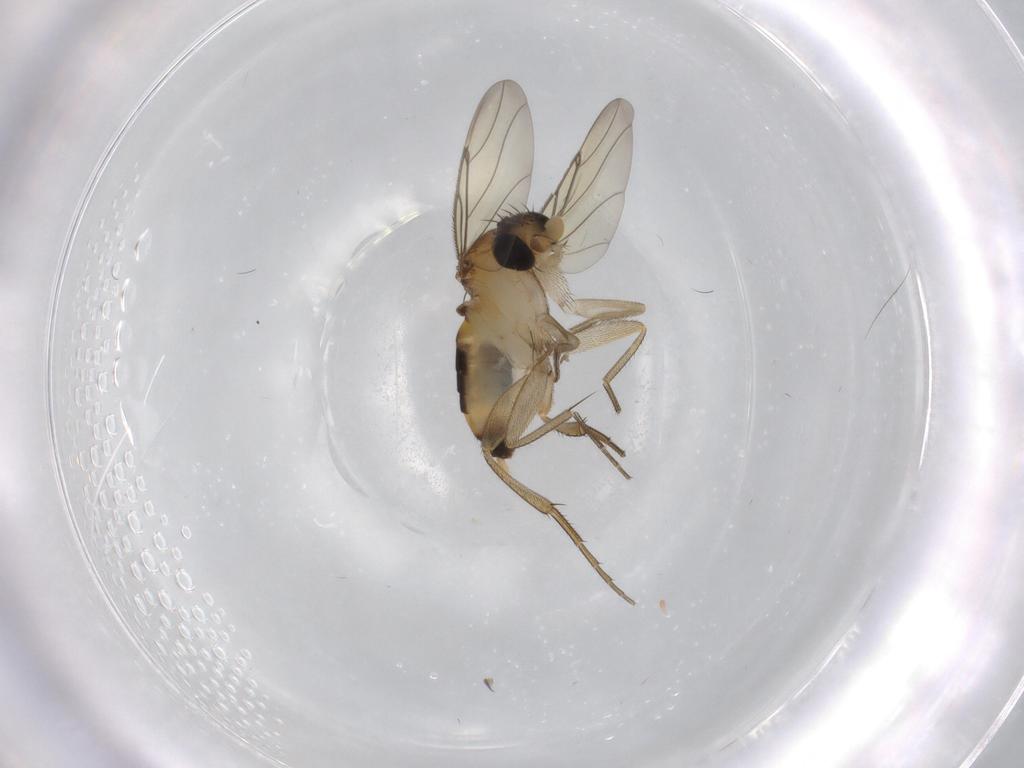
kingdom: Animalia
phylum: Arthropoda
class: Insecta
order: Diptera
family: Phoridae
